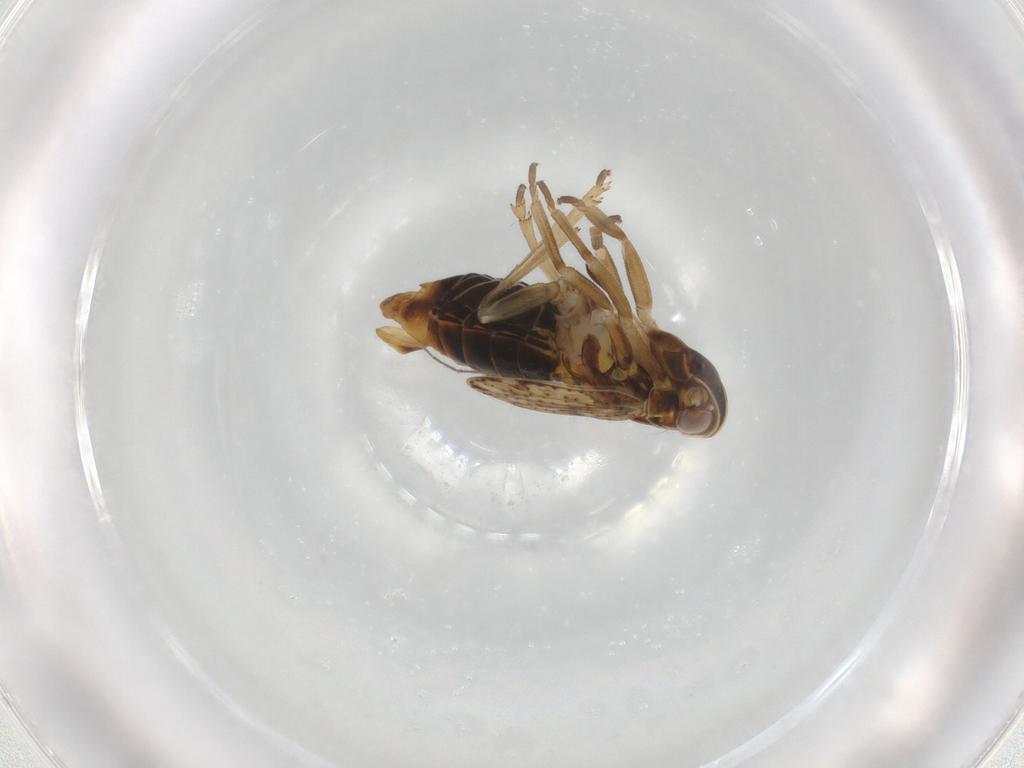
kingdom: Animalia
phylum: Arthropoda
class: Insecta
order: Hemiptera
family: Cixiidae
